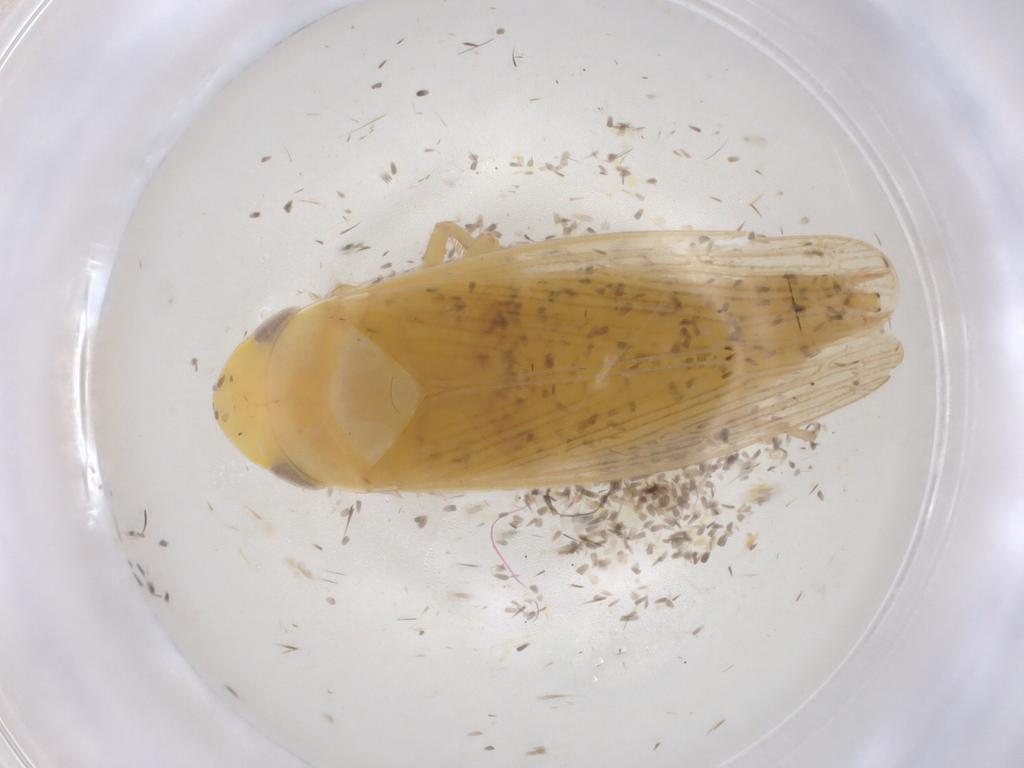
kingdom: Animalia
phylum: Arthropoda
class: Insecta
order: Hemiptera
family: Cicadellidae
